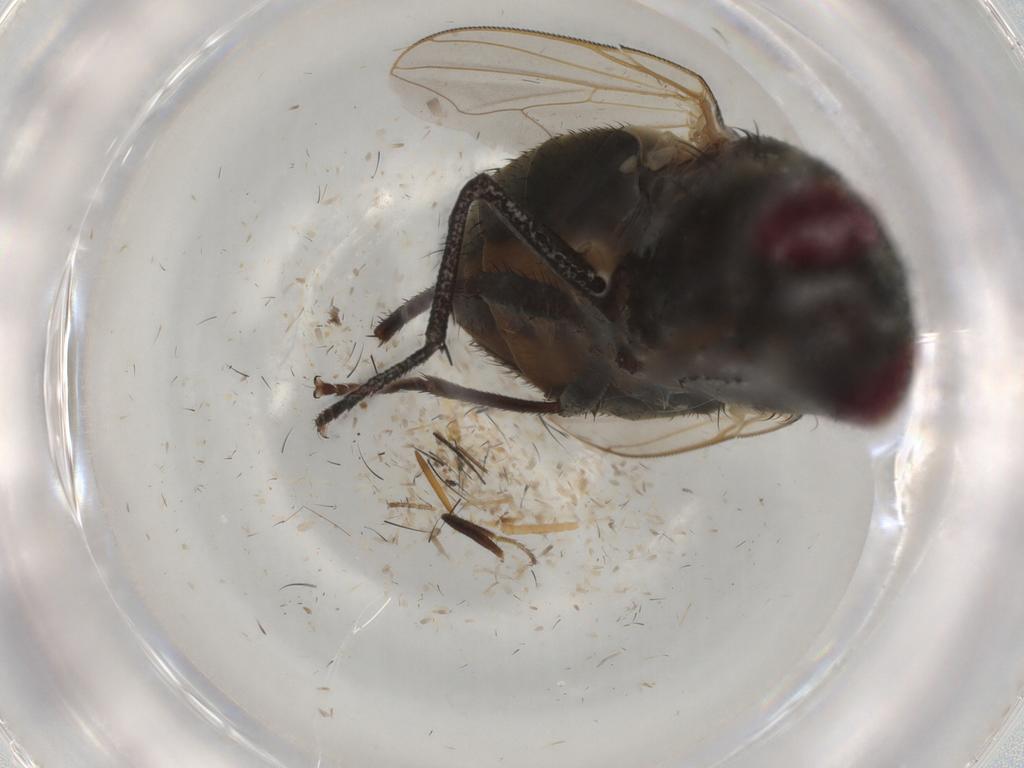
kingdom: Animalia
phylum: Arthropoda
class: Insecta
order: Diptera
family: Muscidae
